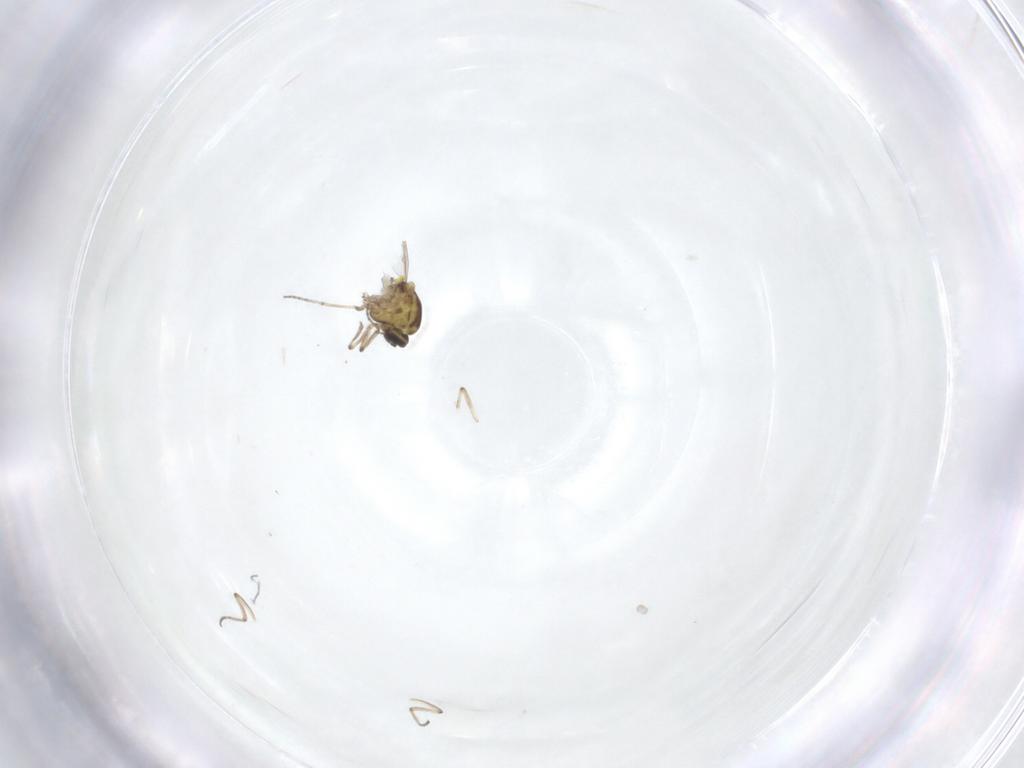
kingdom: Animalia
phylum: Arthropoda
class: Insecta
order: Diptera
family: Ceratopogonidae
